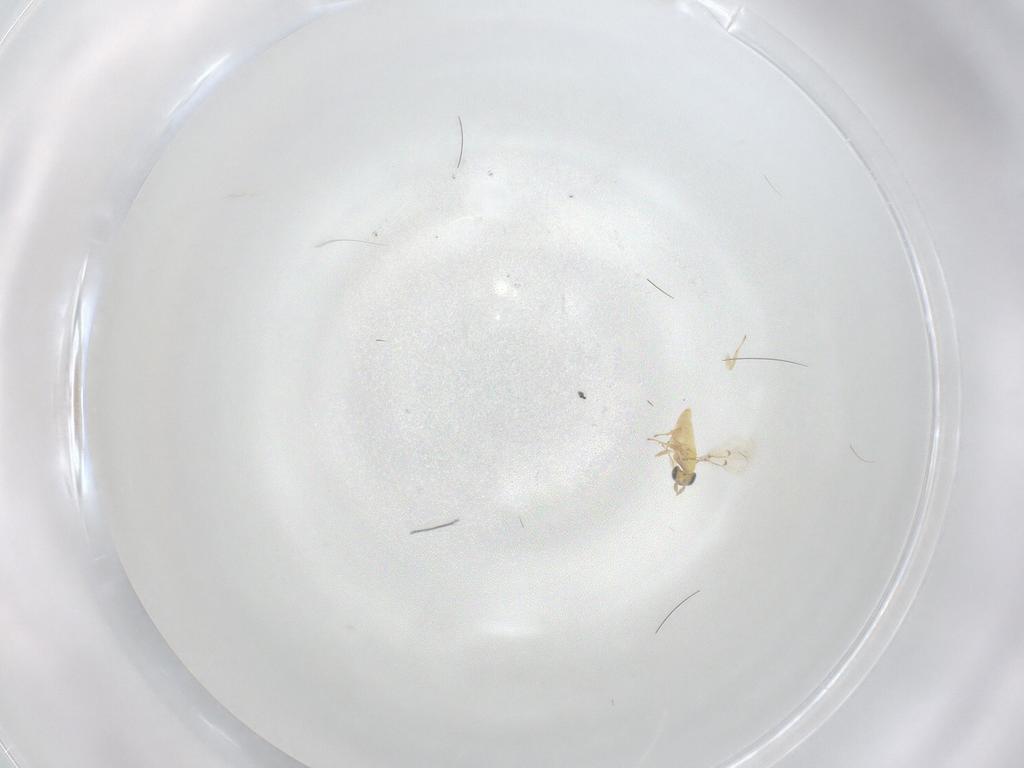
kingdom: Animalia
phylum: Arthropoda
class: Insecta
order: Hymenoptera
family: Trichogrammatidae
